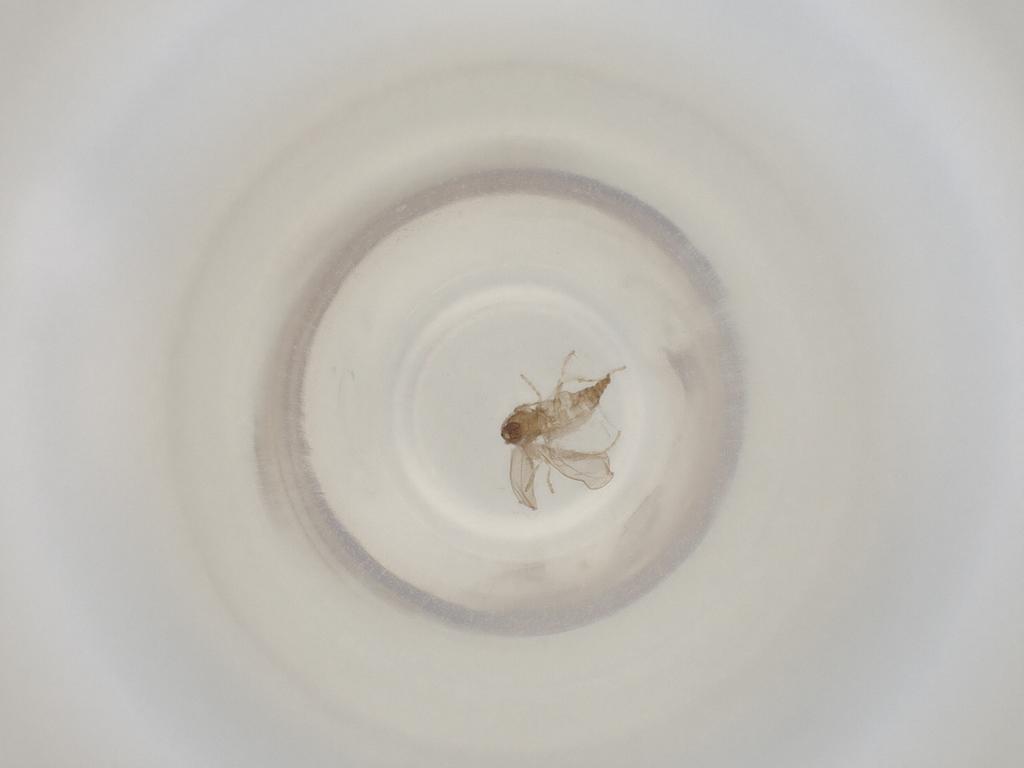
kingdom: Animalia
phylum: Arthropoda
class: Insecta
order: Diptera
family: Cecidomyiidae
